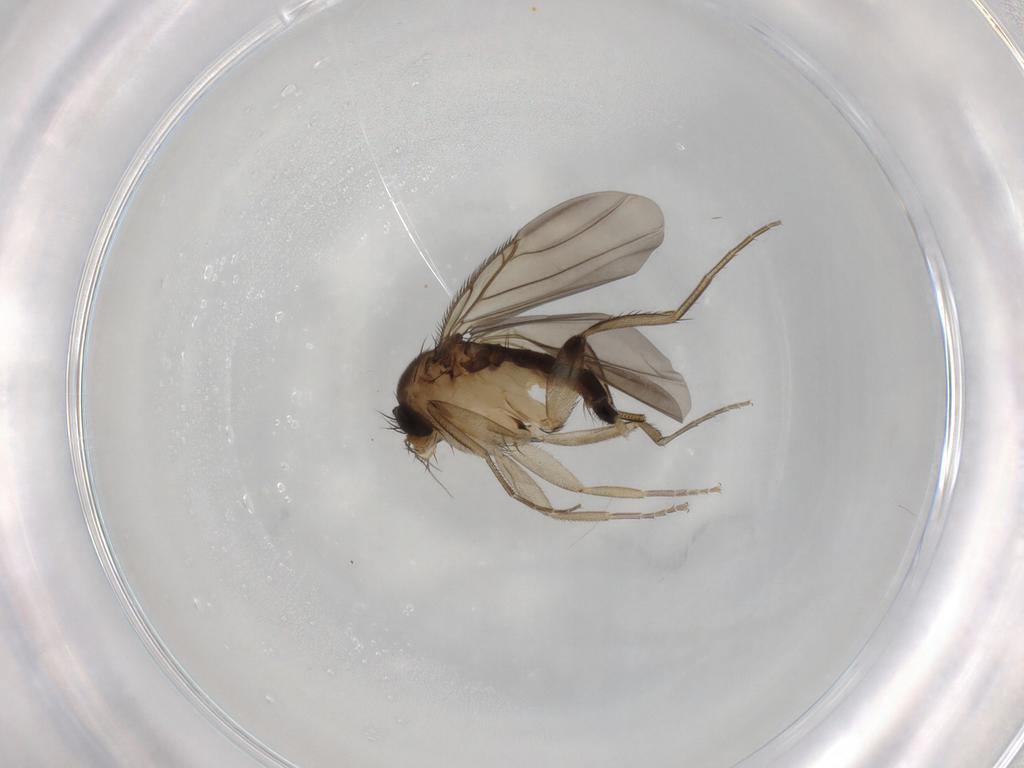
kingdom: Animalia
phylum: Arthropoda
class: Insecta
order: Diptera
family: Phoridae
